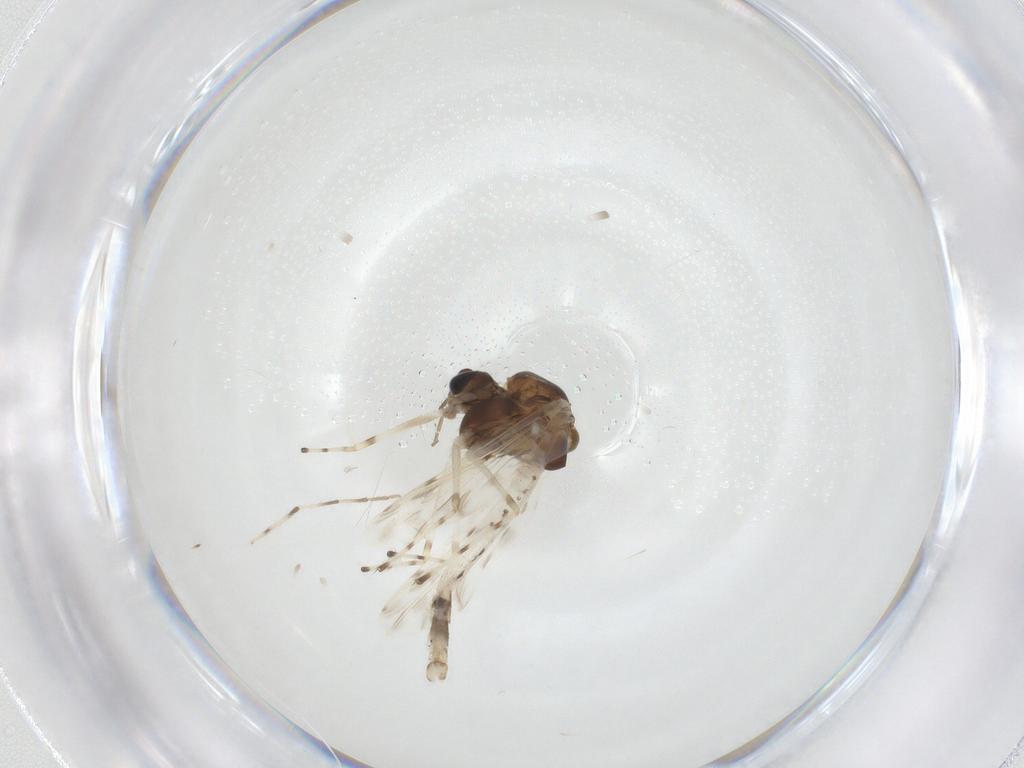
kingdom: Animalia
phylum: Arthropoda
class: Insecta
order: Diptera
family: Chironomidae
